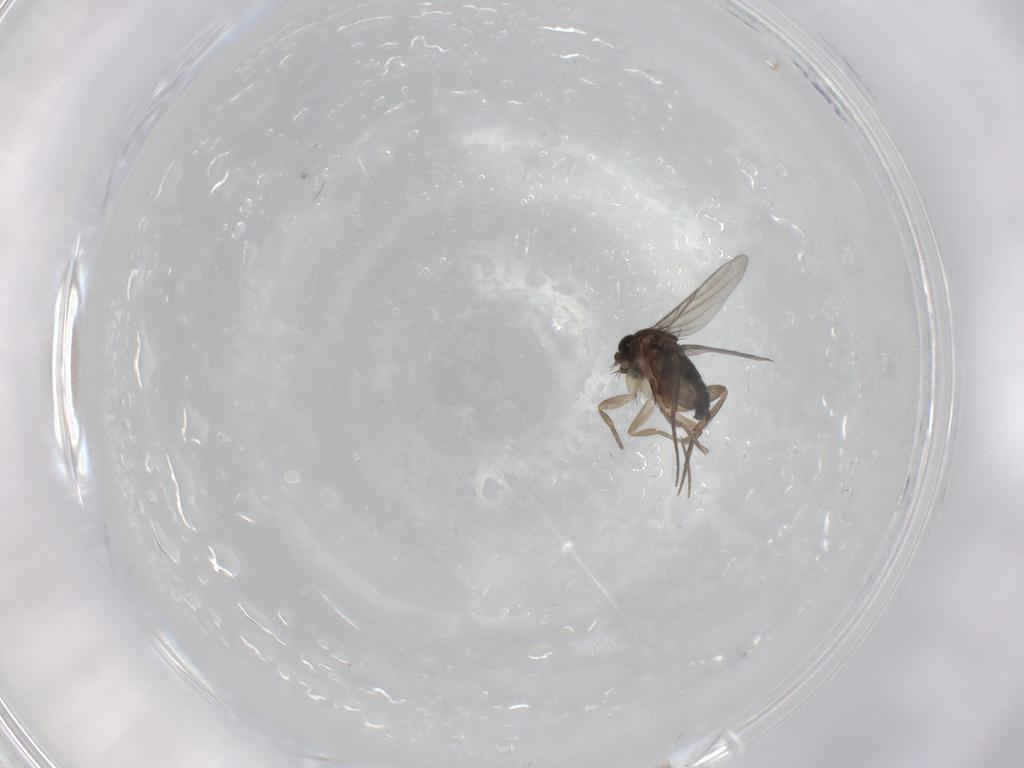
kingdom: Animalia
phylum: Arthropoda
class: Insecta
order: Diptera
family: Phoridae
